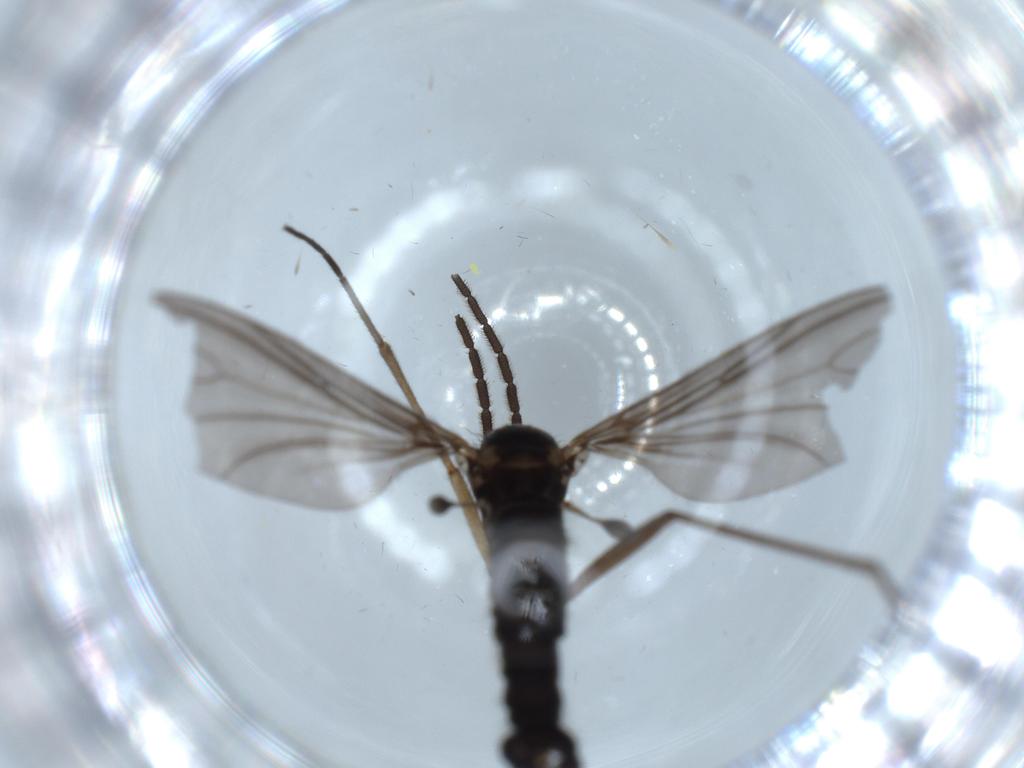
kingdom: Animalia
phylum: Arthropoda
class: Insecta
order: Diptera
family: Sciaridae
